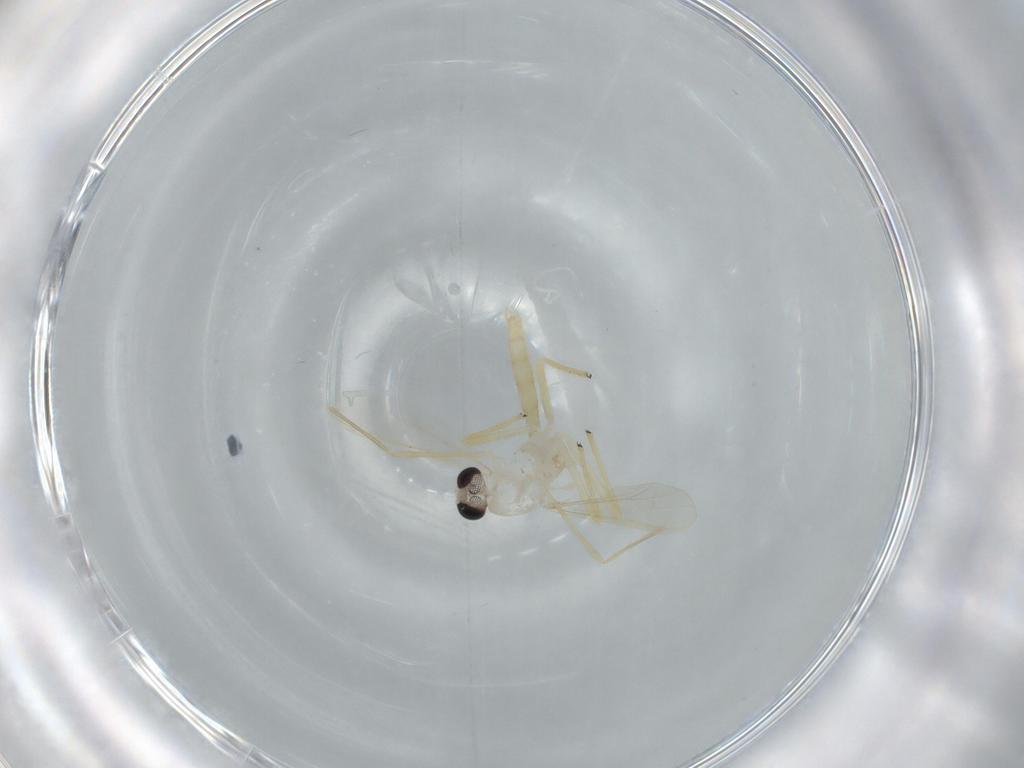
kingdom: Animalia
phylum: Arthropoda
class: Insecta
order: Diptera
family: Chironomidae
